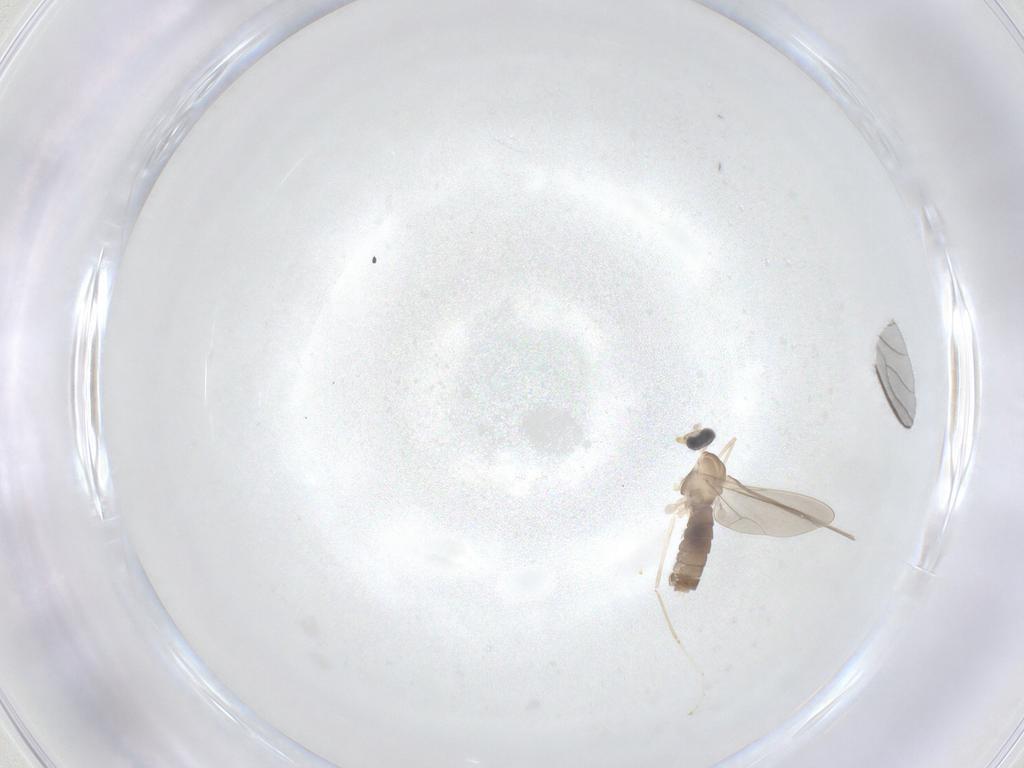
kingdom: Animalia
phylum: Arthropoda
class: Insecta
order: Diptera
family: Cecidomyiidae
